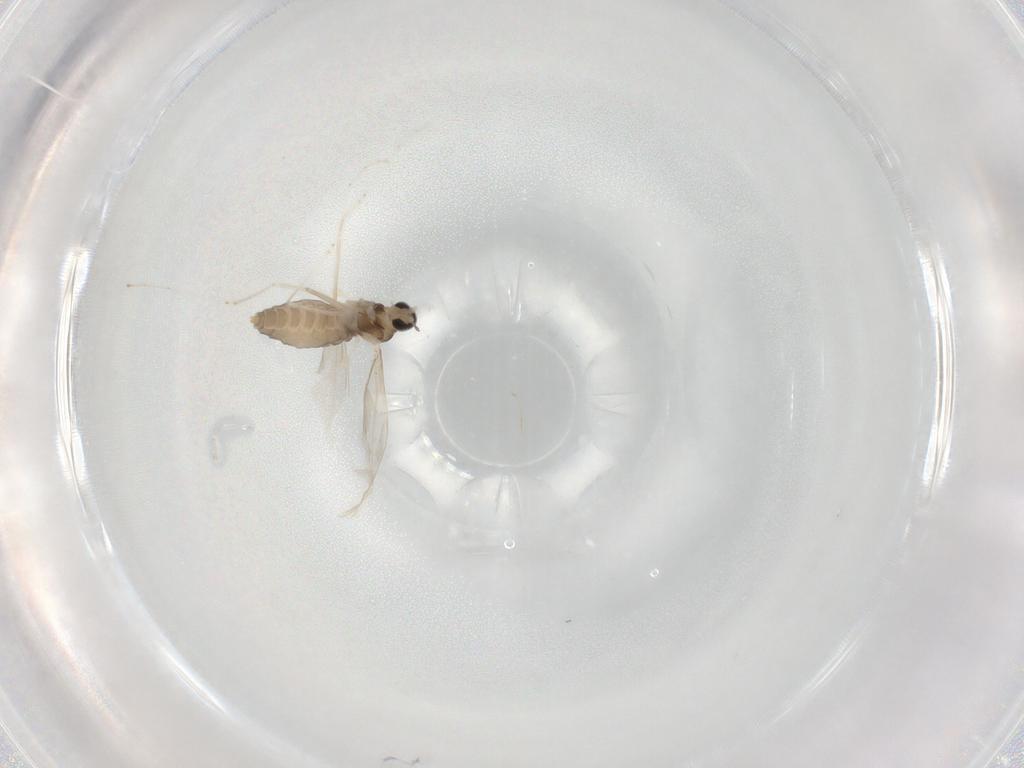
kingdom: Animalia
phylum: Arthropoda
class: Insecta
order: Diptera
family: Cecidomyiidae
